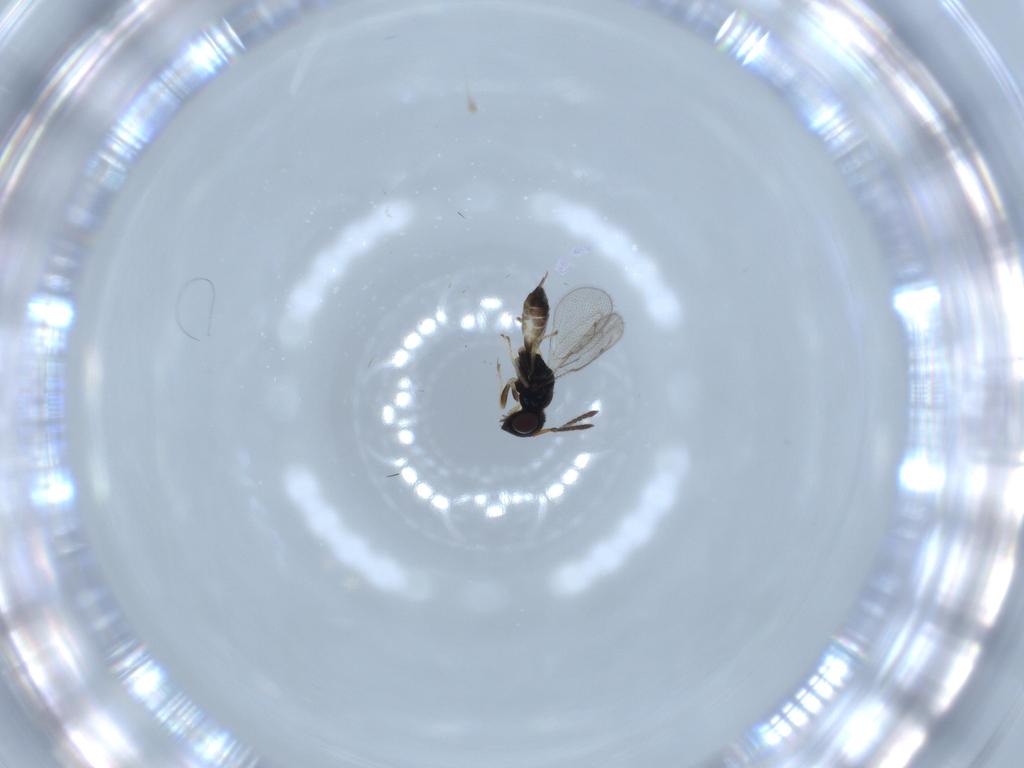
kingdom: Animalia
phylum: Arthropoda
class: Insecta
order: Hymenoptera
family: Pteromalidae
